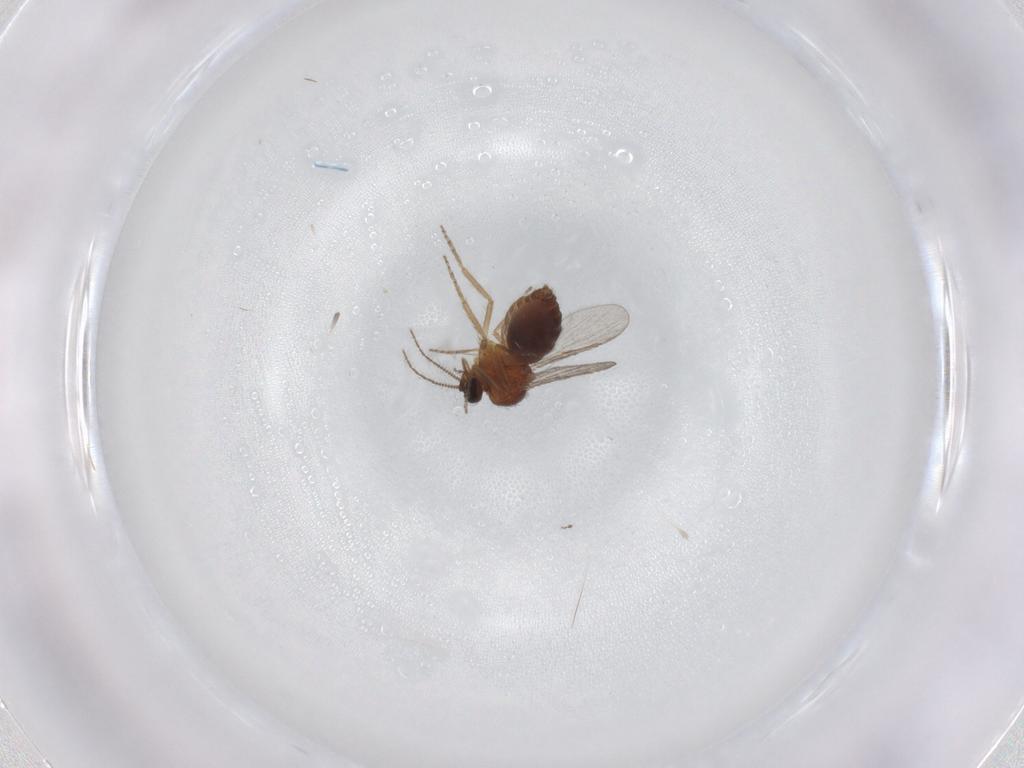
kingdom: Animalia
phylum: Arthropoda
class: Insecta
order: Diptera
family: Ceratopogonidae
